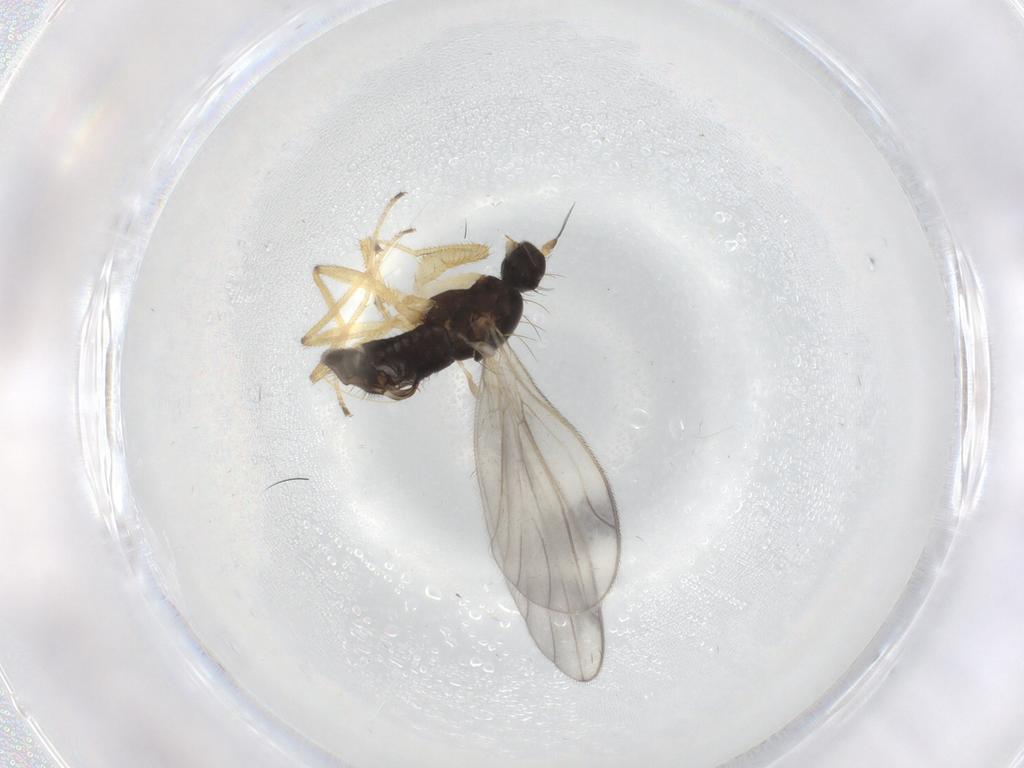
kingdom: Animalia
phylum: Arthropoda
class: Insecta
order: Diptera
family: Empididae
